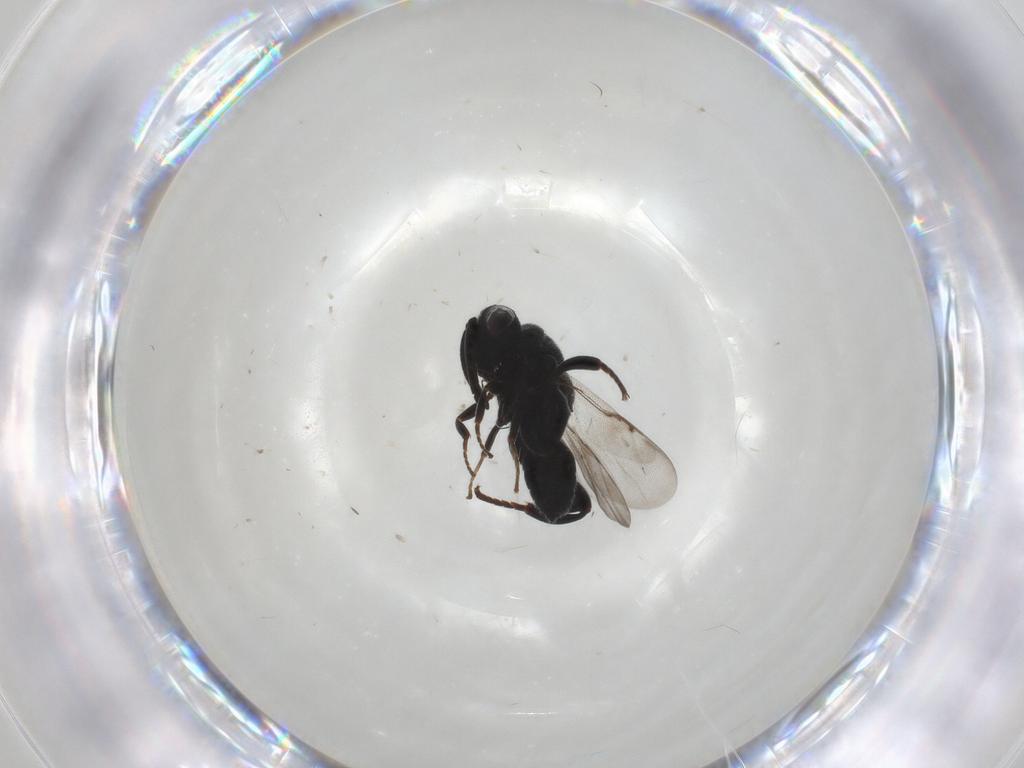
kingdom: Animalia
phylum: Arthropoda
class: Insecta
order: Hymenoptera
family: Chalcididae
